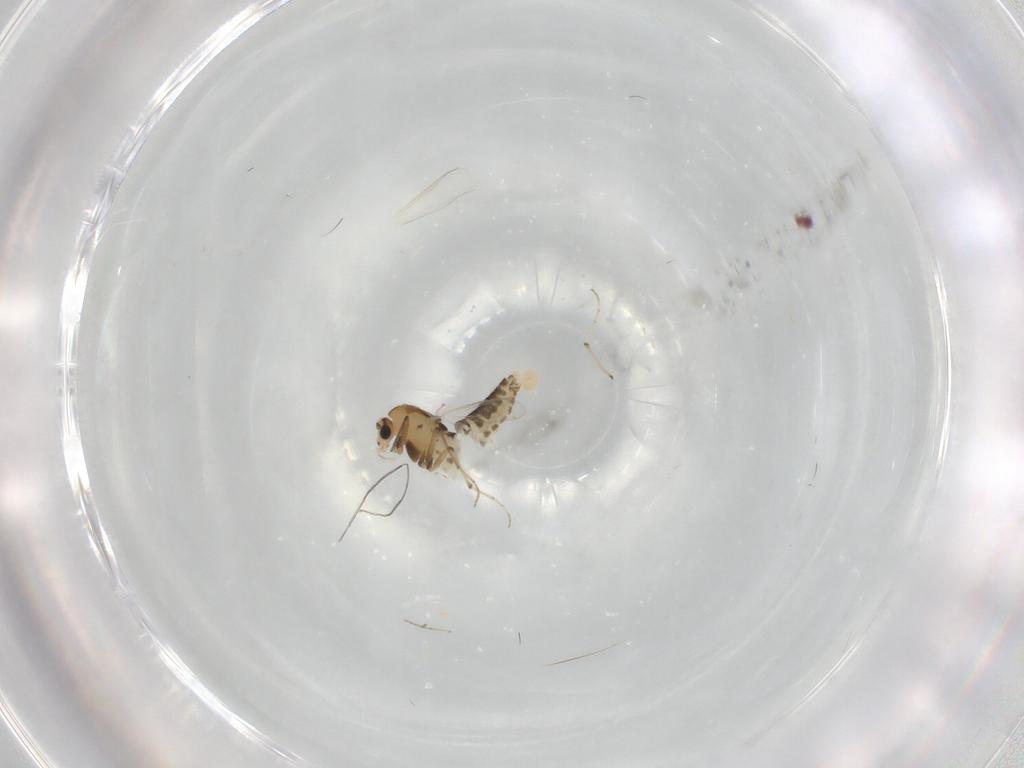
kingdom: Animalia
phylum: Arthropoda
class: Insecta
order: Diptera
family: Chironomidae
